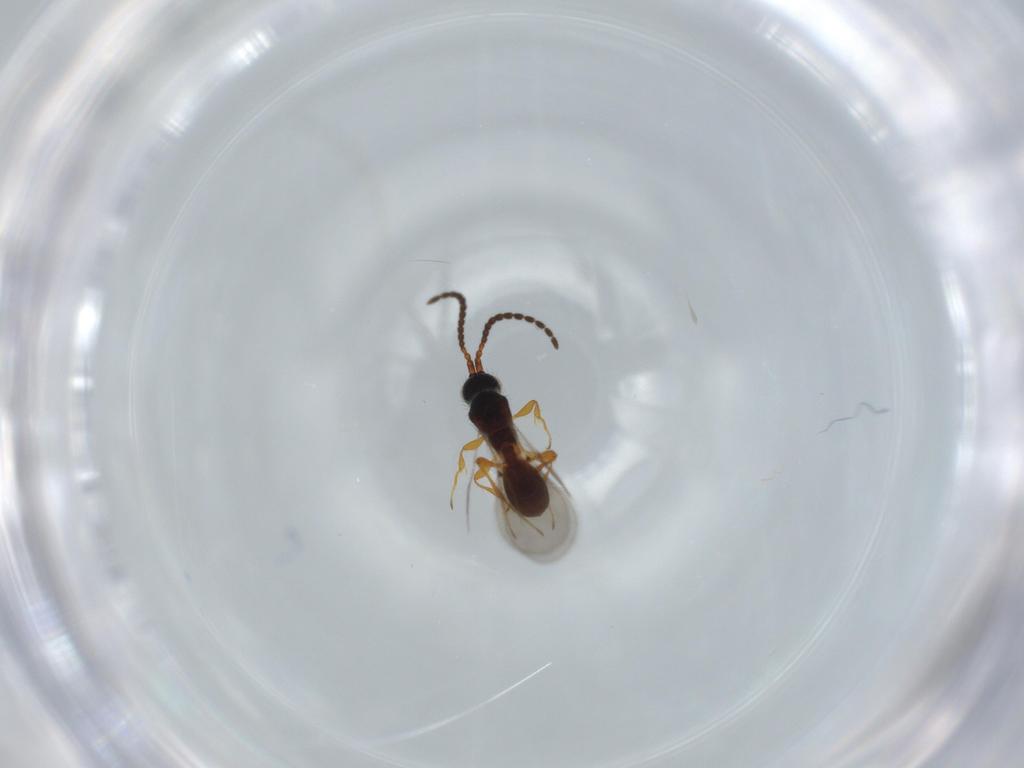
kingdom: Animalia
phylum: Arthropoda
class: Insecta
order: Hymenoptera
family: Diapriidae
